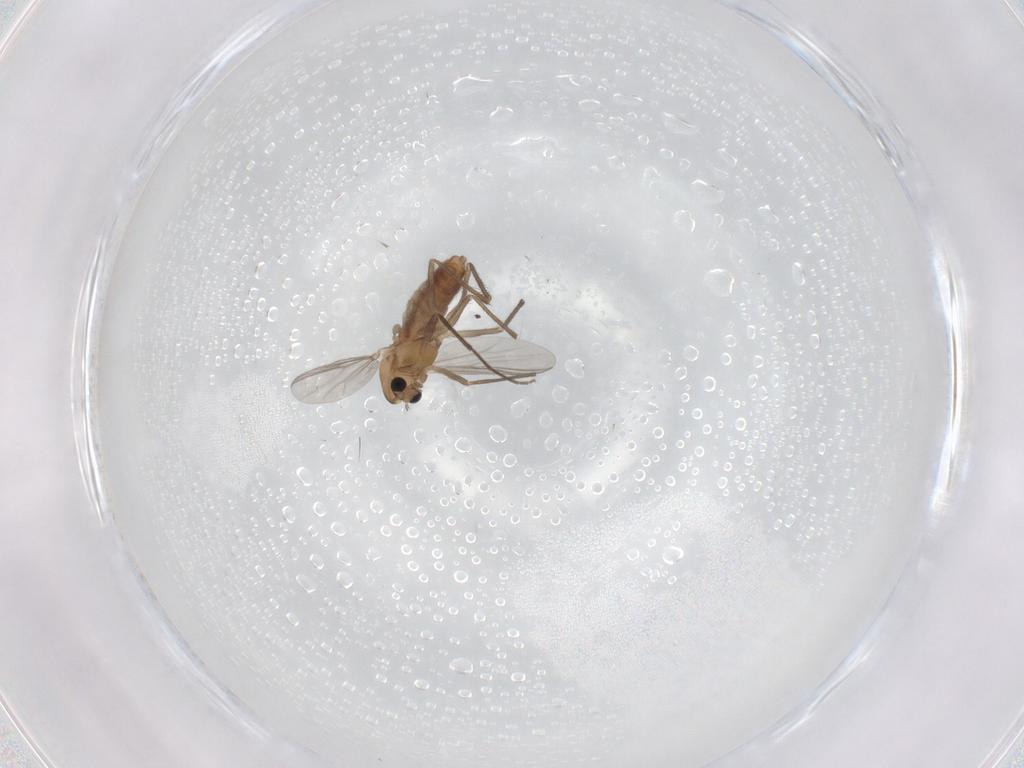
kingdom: Animalia
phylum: Arthropoda
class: Insecta
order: Diptera
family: Chironomidae
